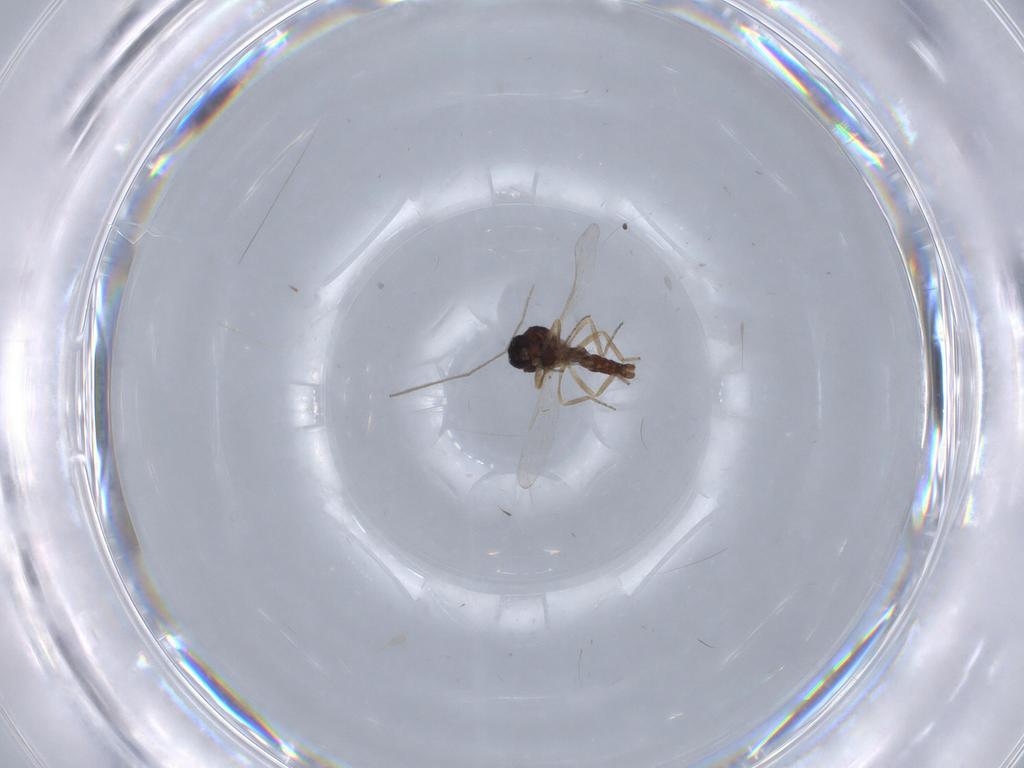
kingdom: Animalia
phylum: Arthropoda
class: Insecta
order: Diptera
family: Ceratopogonidae
